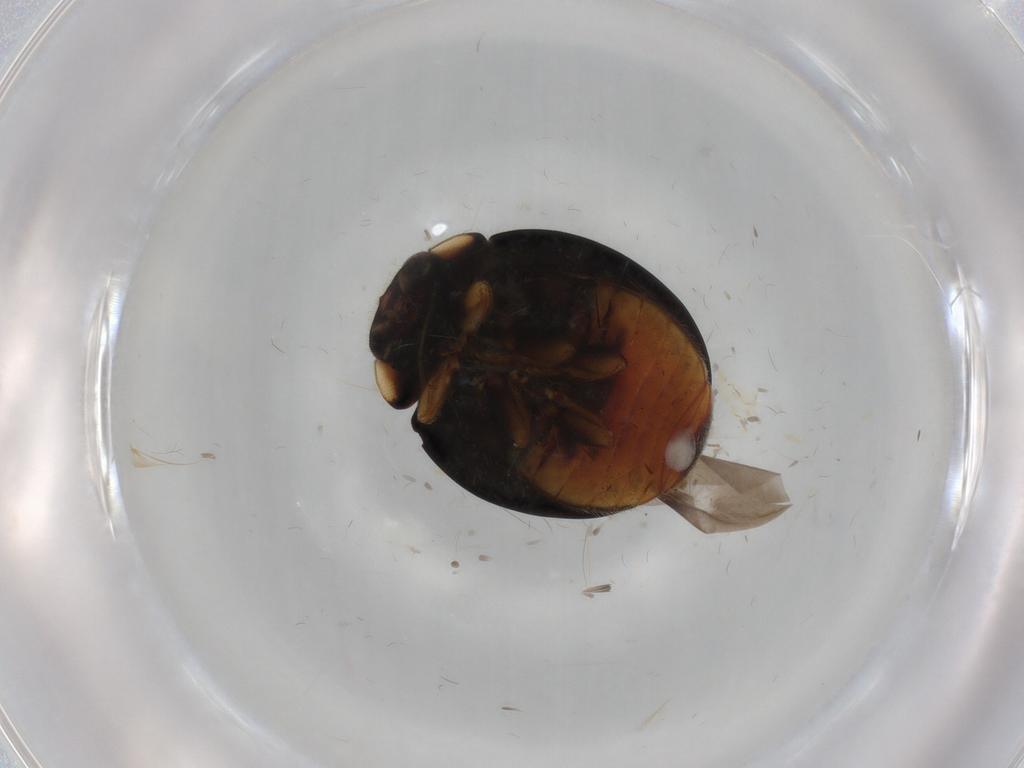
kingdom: Animalia
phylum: Arthropoda
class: Insecta
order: Coleoptera
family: Coccinellidae
